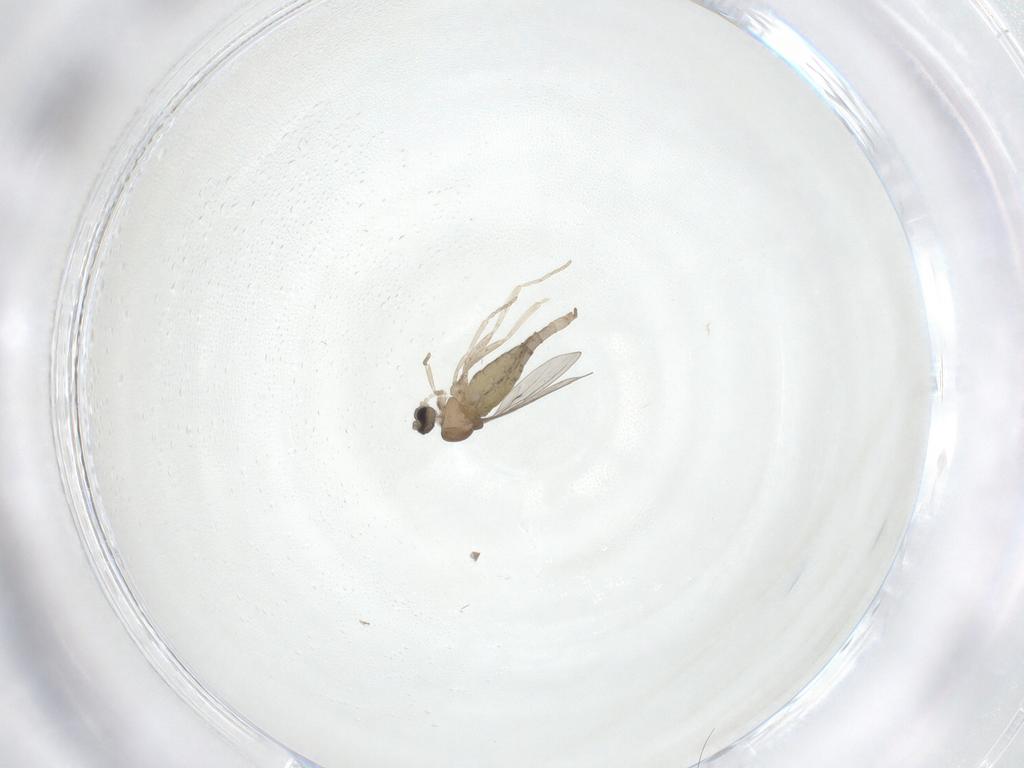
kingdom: Animalia
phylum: Arthropoda
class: Insecta
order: Diptera
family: Cecidomyiidae
